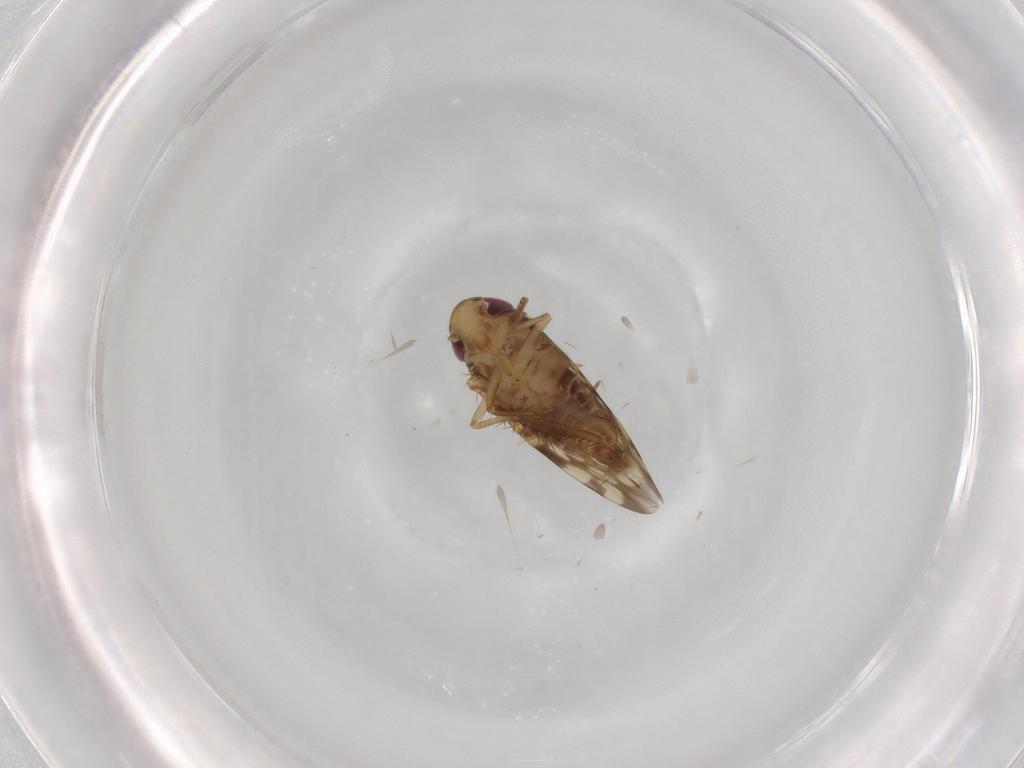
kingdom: Animalia
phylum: Arthropoda
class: Insecta
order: Hemiptera
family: Cicadellidae
